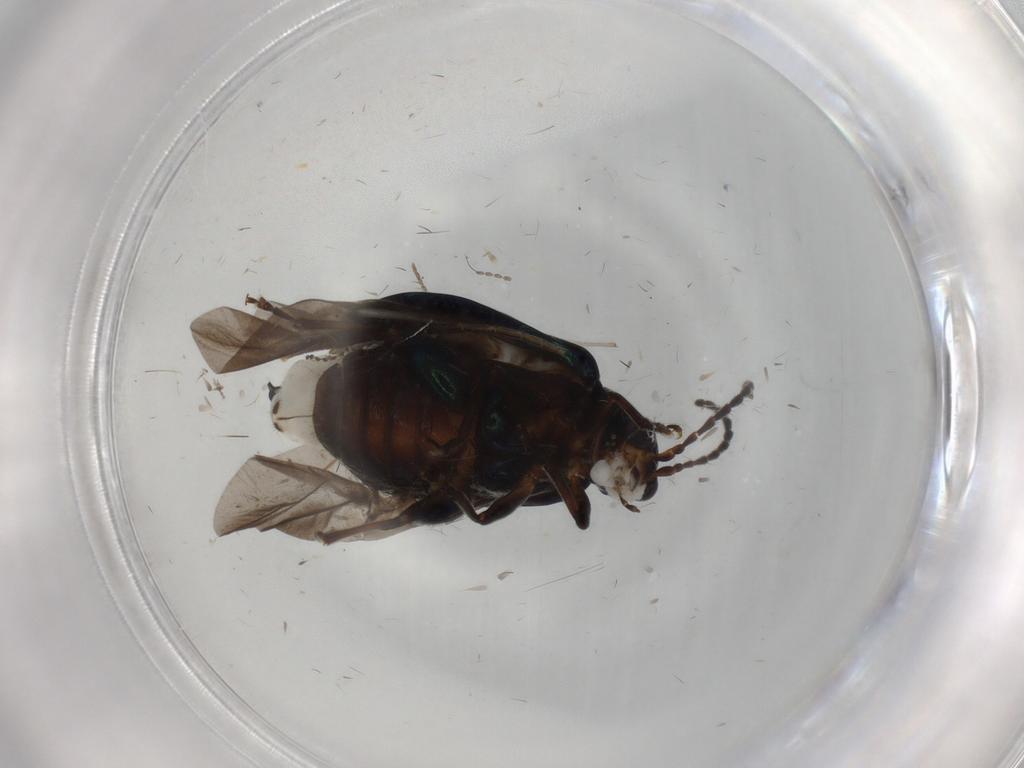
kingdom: Animalia
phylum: Arthropoda
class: Insecta
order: Coleoptera
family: Chrysomelidae
